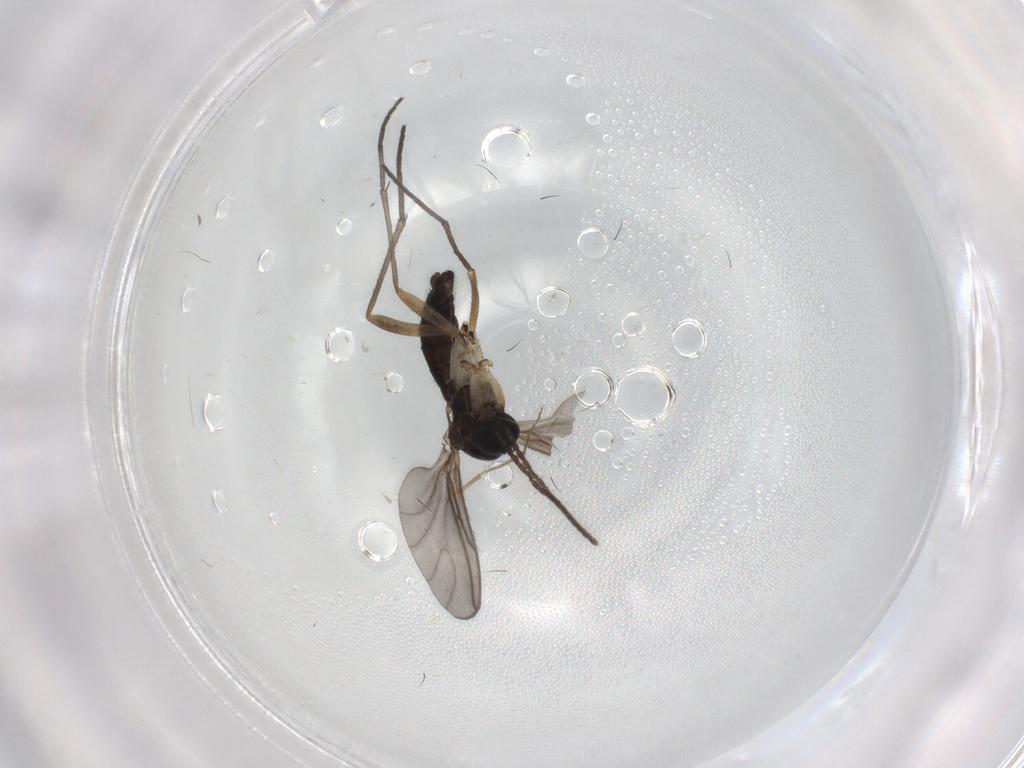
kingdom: Animalia
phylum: Arthropoda
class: Insecta
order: Diptera
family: Sciaridae
